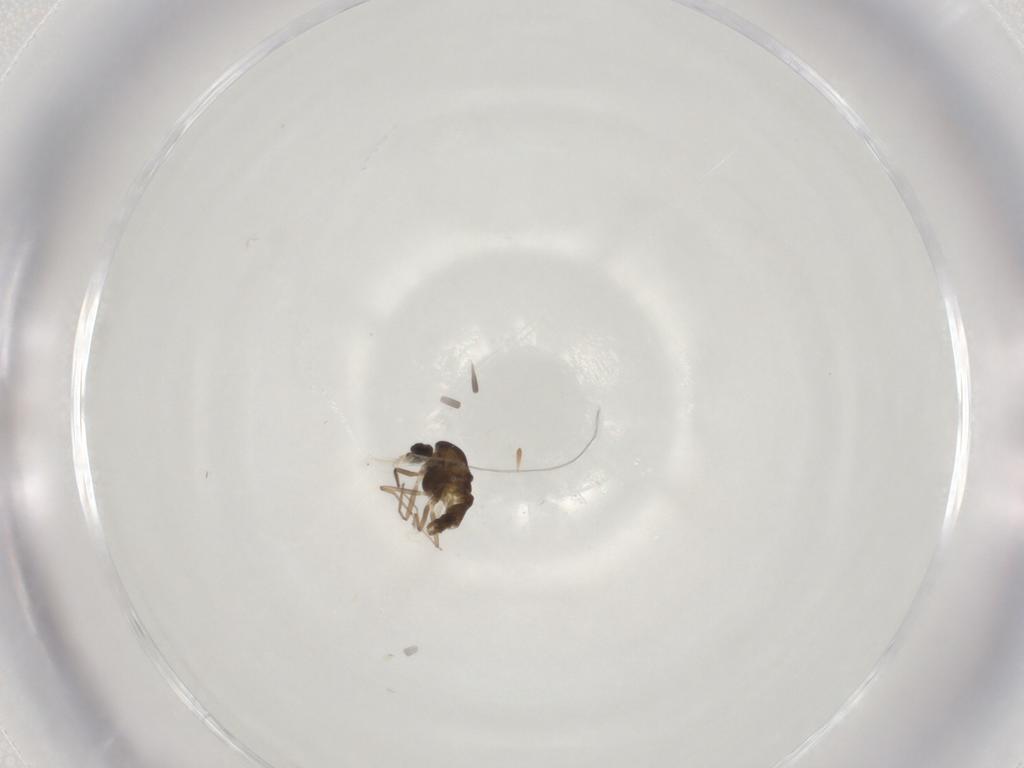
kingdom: Animalia
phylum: Arthropoda
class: Insecta
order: Diptera
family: Chironomidae
